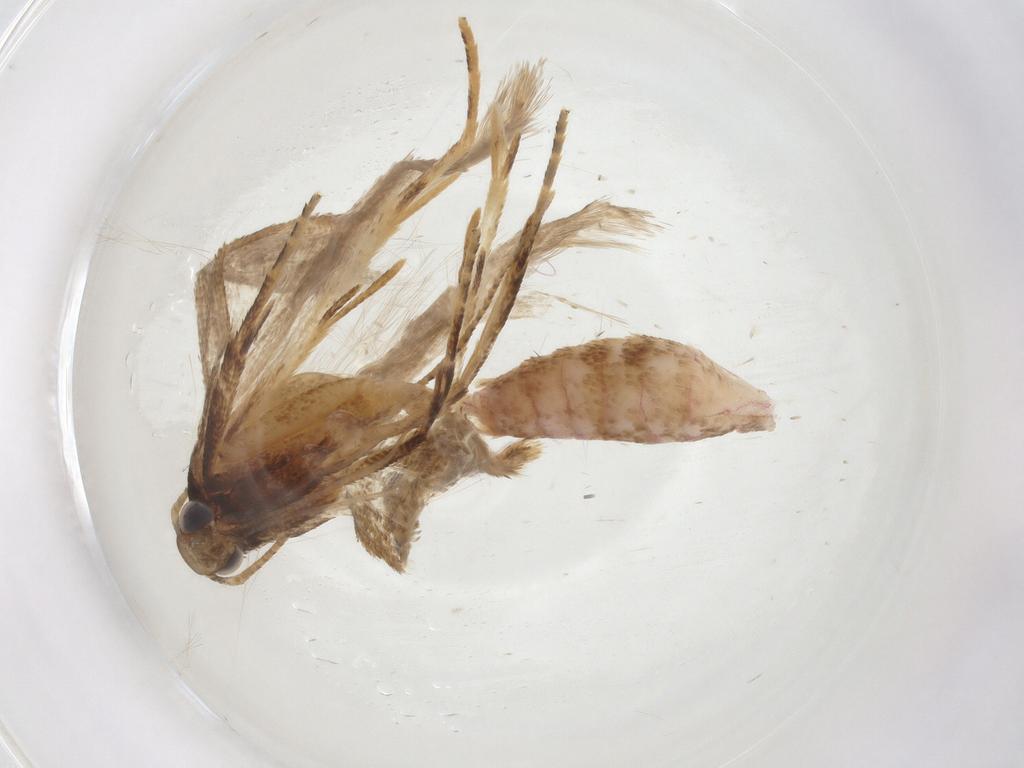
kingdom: Animalia
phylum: Arthropoda
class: Insecta
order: Lepidoptera
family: Gelechiidae
